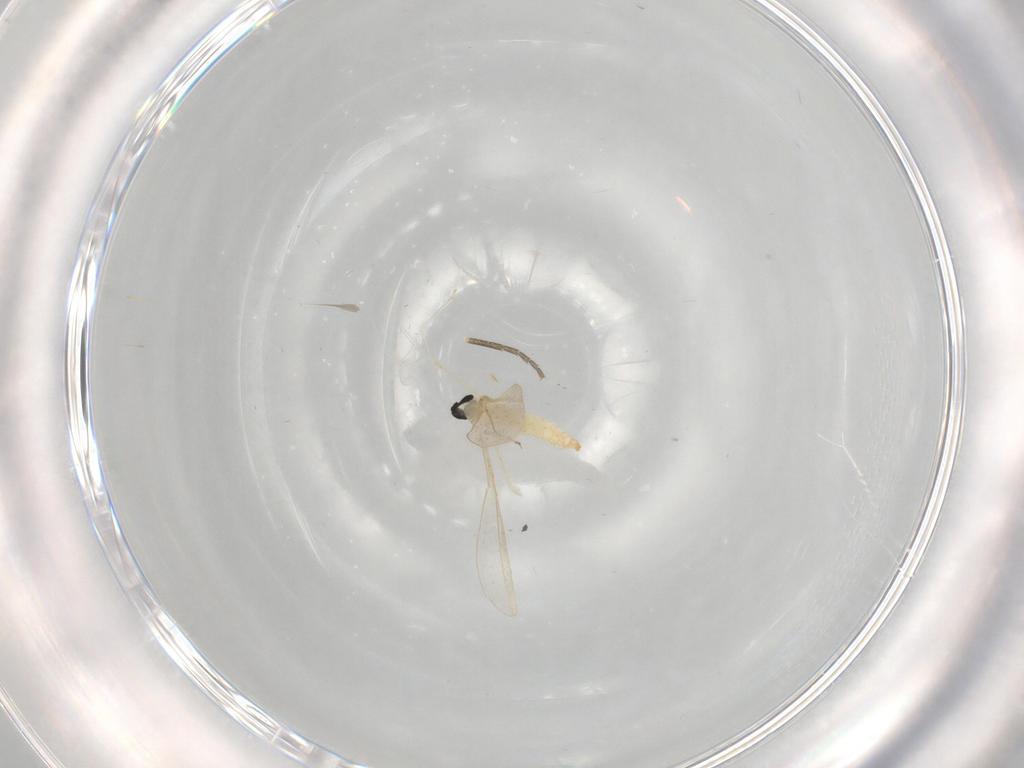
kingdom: Animalia
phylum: Arthropoda
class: Insecta
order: Diptera
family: Cecidomyiidae
